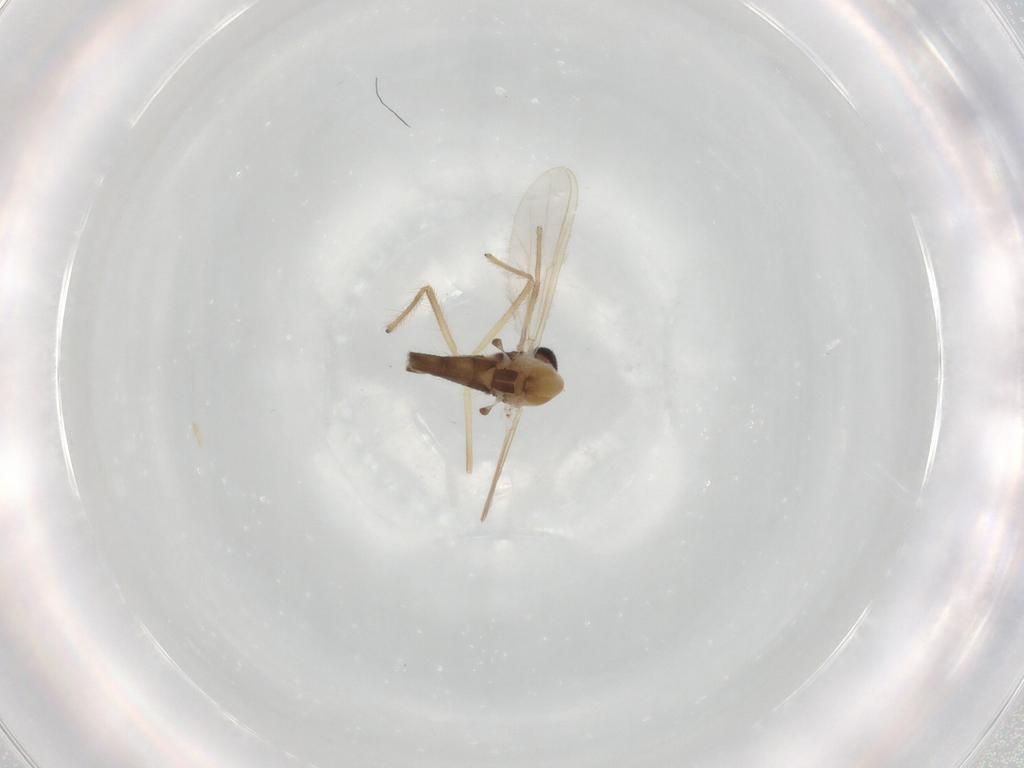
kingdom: Animalia
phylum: Arthropoda
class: Insecta
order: Diptera
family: Chironomidae
